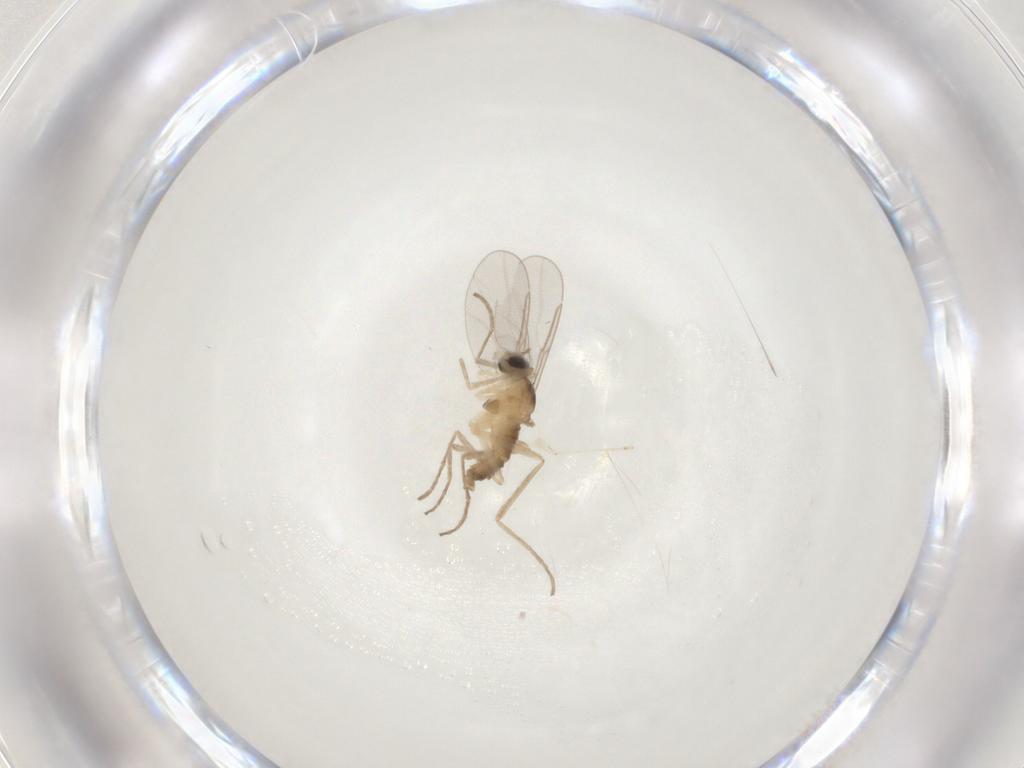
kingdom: Animalia
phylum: Arthropoda
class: Insecta
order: Diptera
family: Cecidomyiidae
